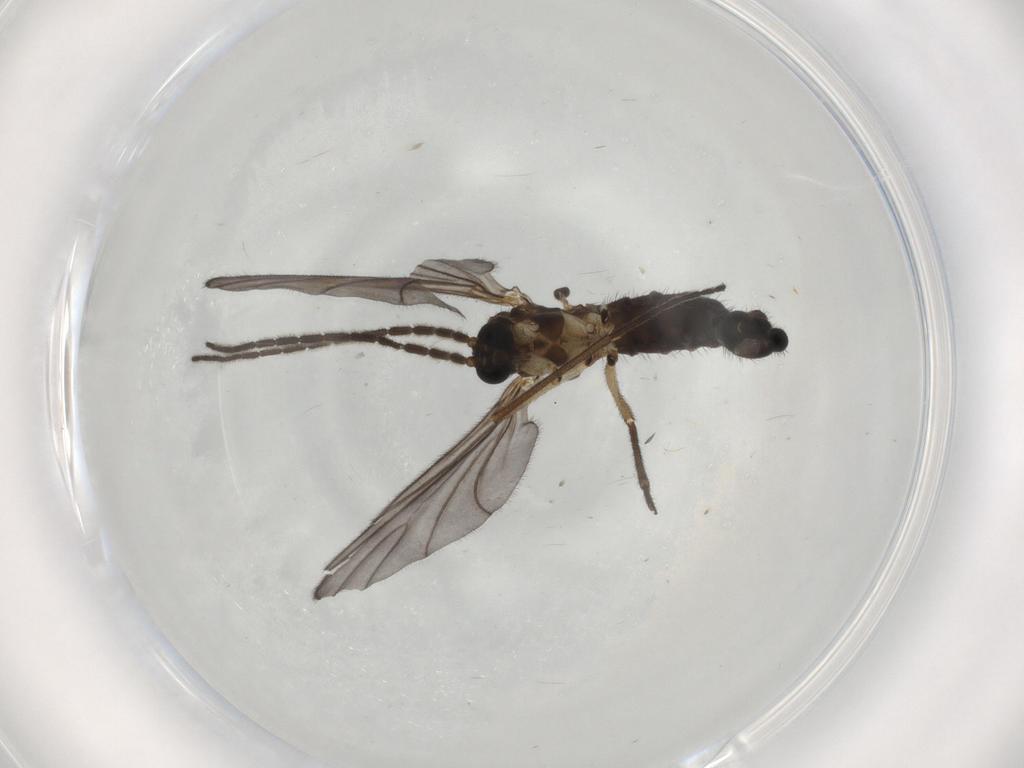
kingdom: Animalia
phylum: Arthropoda
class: Insecta
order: Diptera
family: Sciaridae
